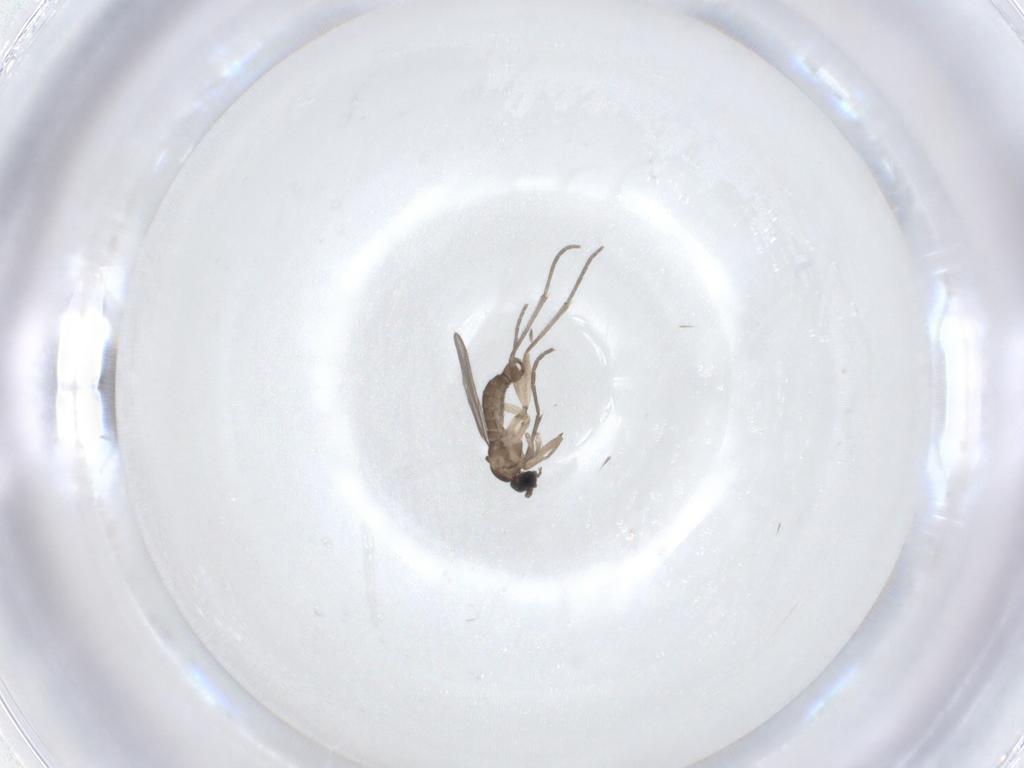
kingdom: Animalia
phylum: Arthropoda
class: Insecta
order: Diptera
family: Sciaridae
